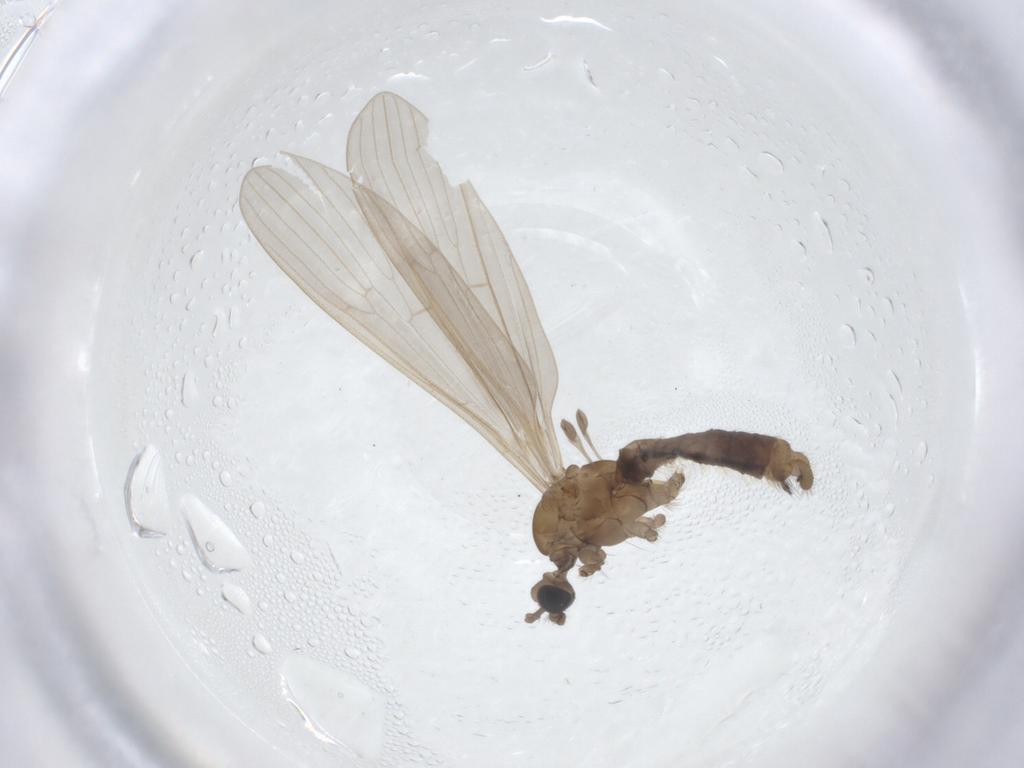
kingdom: Animalia
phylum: Arthropoda
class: Insecta
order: Diptera
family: Limoniidae
